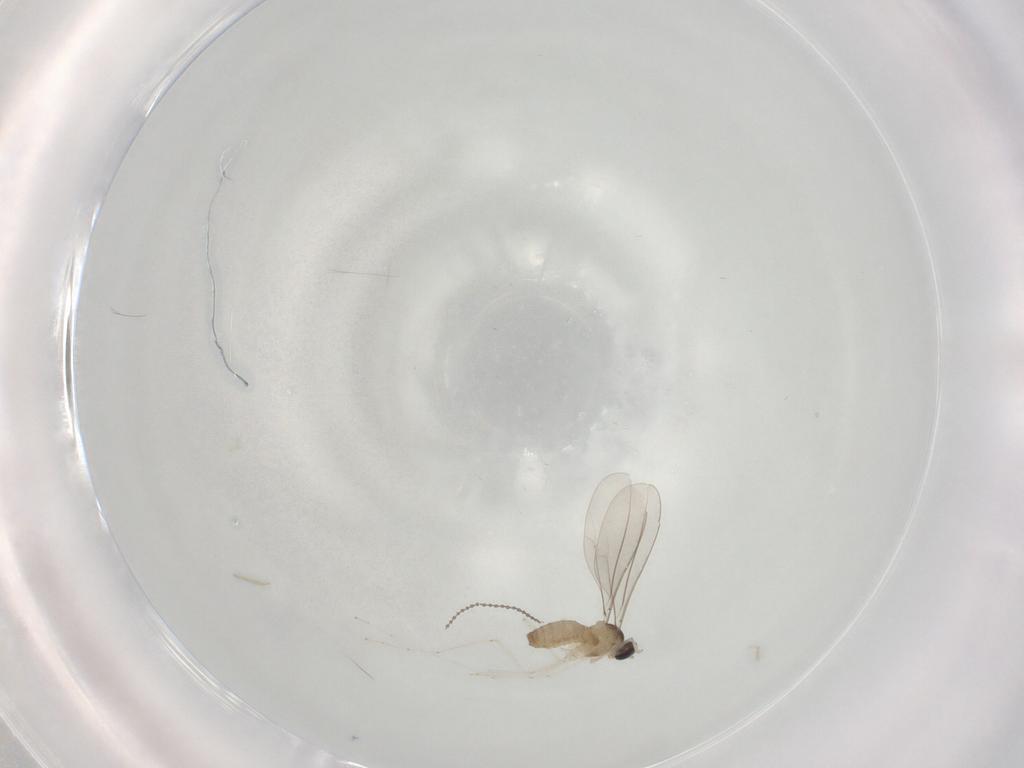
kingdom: Animalia
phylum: Arthropoda
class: Insecta
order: Diptera
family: Cecidomyiidae
